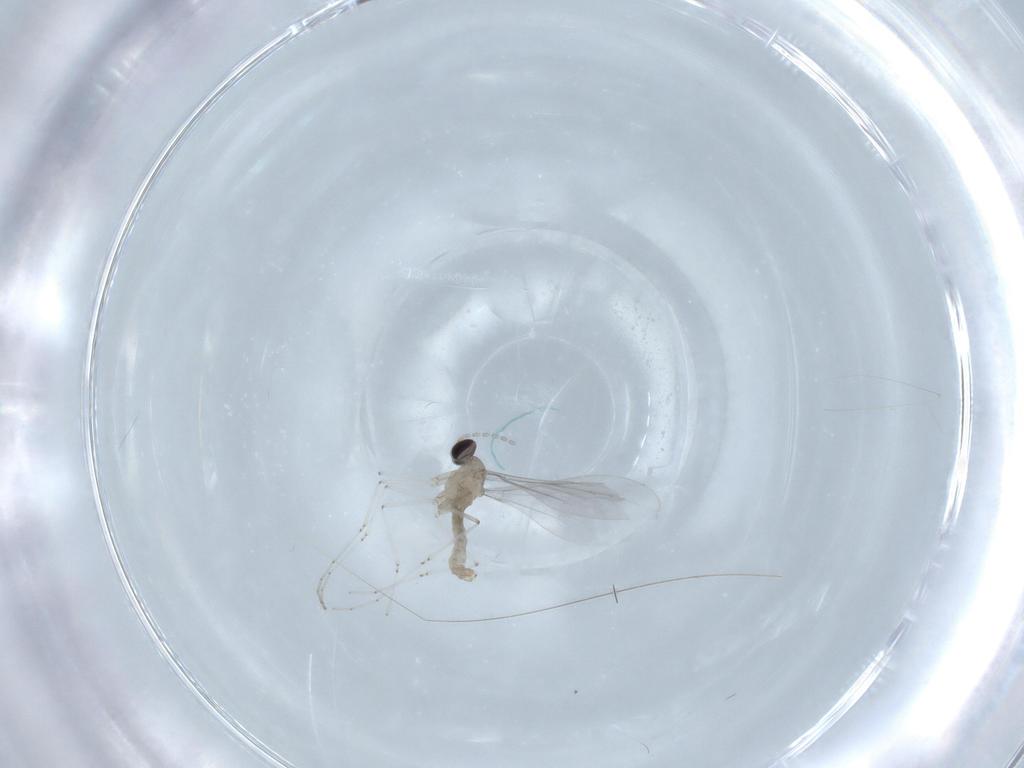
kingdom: Animalia
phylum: Arthropoda
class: Insecta
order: Diptera
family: Cecidomyiidae
